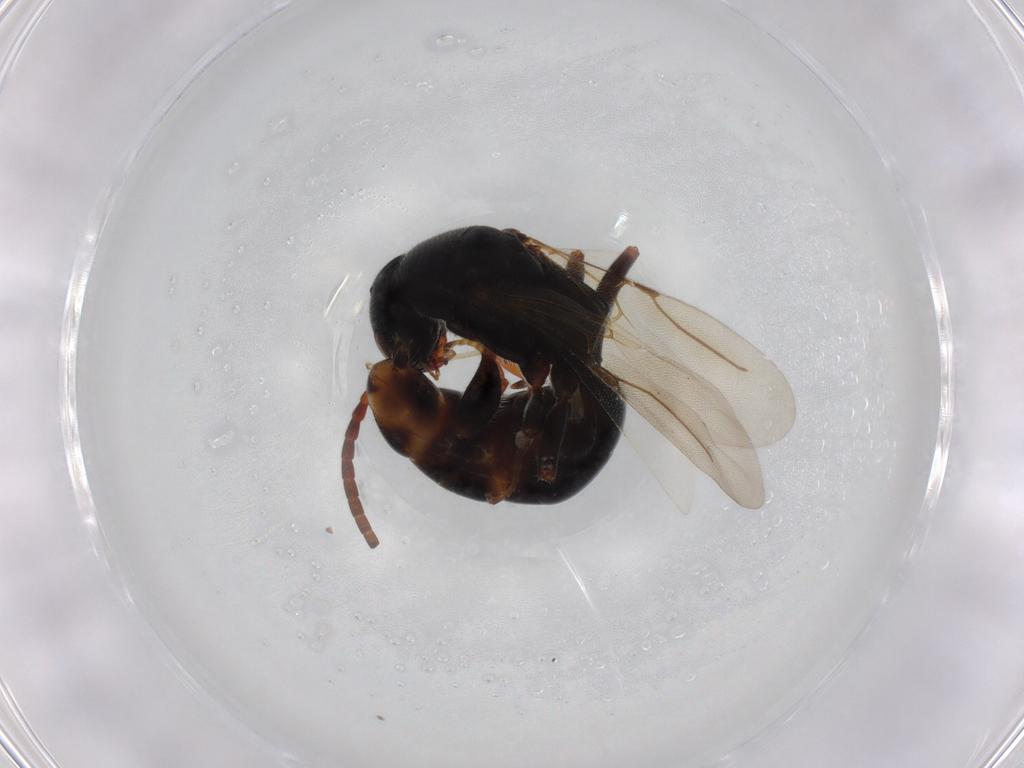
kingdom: Animalia
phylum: Arthropoda
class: Insecta
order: Hymenoptera
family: Bethylidae
